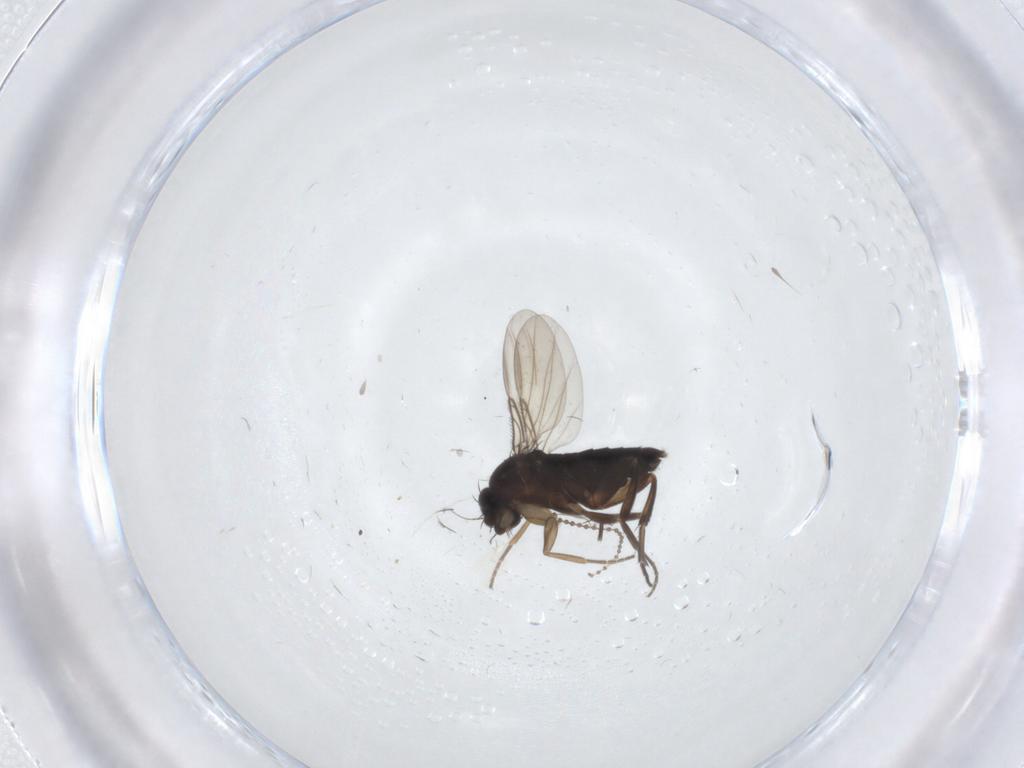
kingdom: Animalia
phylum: Arthropoda
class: Insecta
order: Diptera
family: Cecidomyiidae
